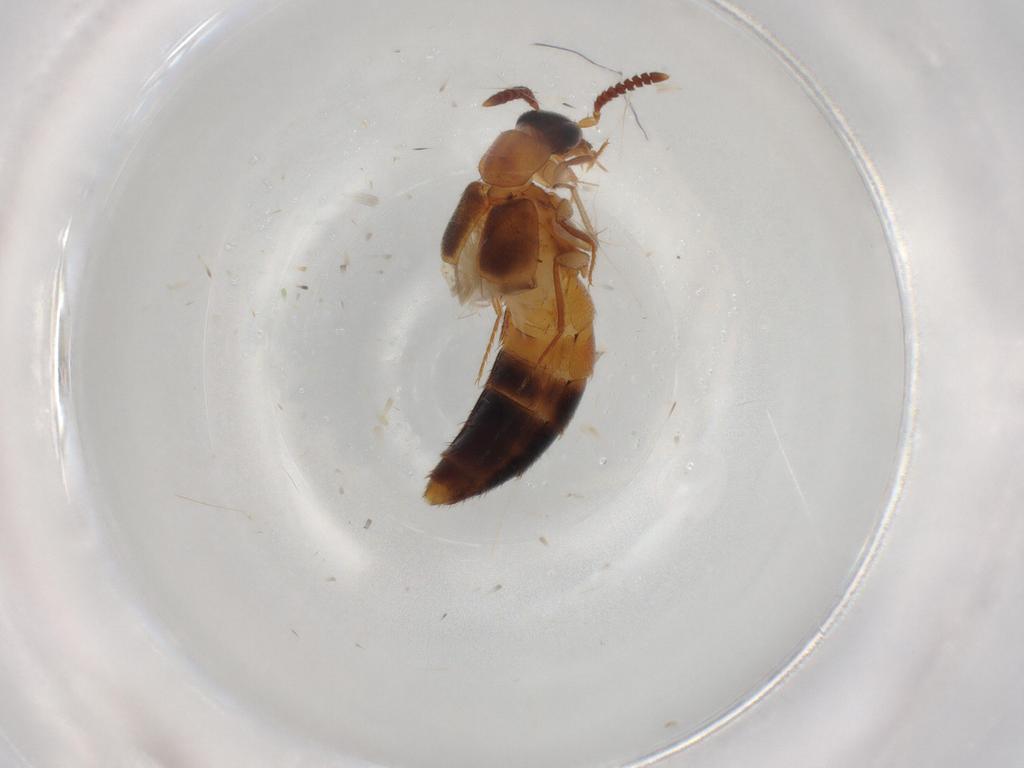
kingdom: Animalia
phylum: Arthropoda
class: Insecta
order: Coleoptera
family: Staphylinidae
